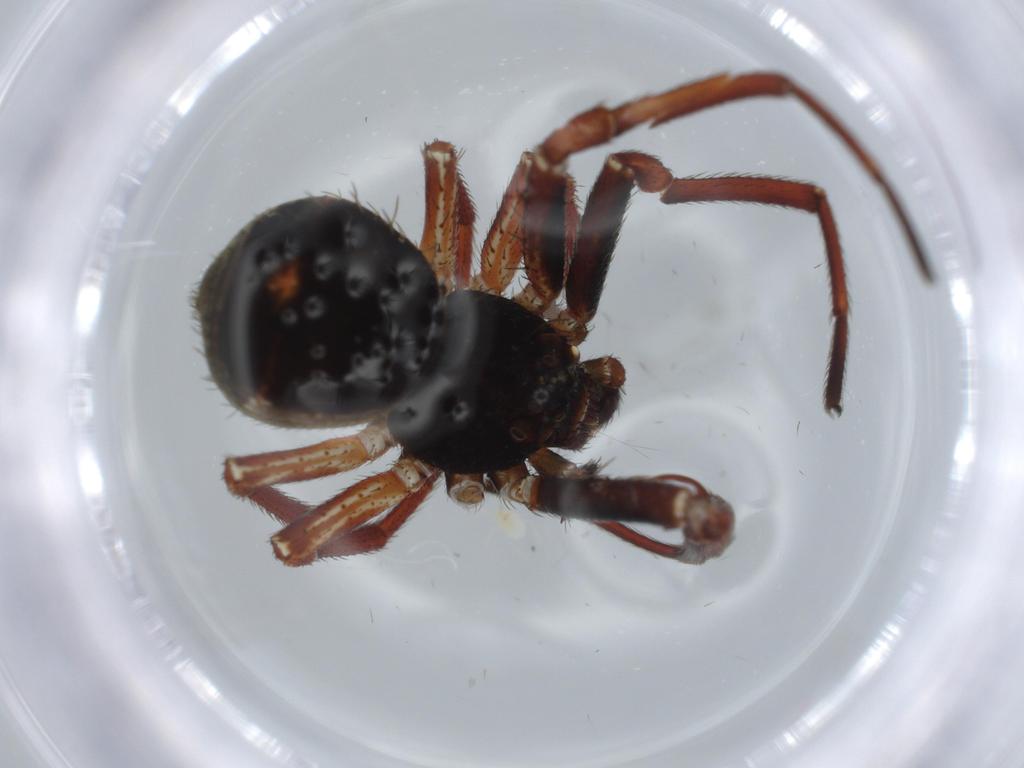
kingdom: Animalia
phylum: Arthropoda
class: Arachnida
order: Araneae
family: Thomisidae
